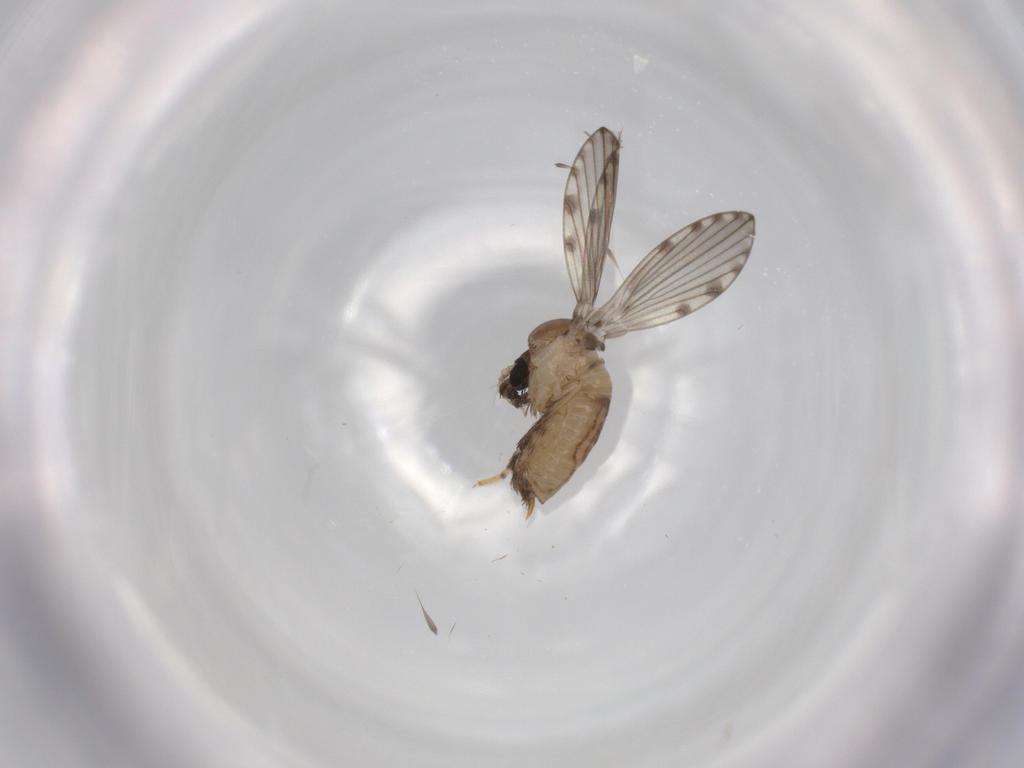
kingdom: Animalia
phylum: Arthropoda
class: Insecta
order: Diptera
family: Psychodidae
